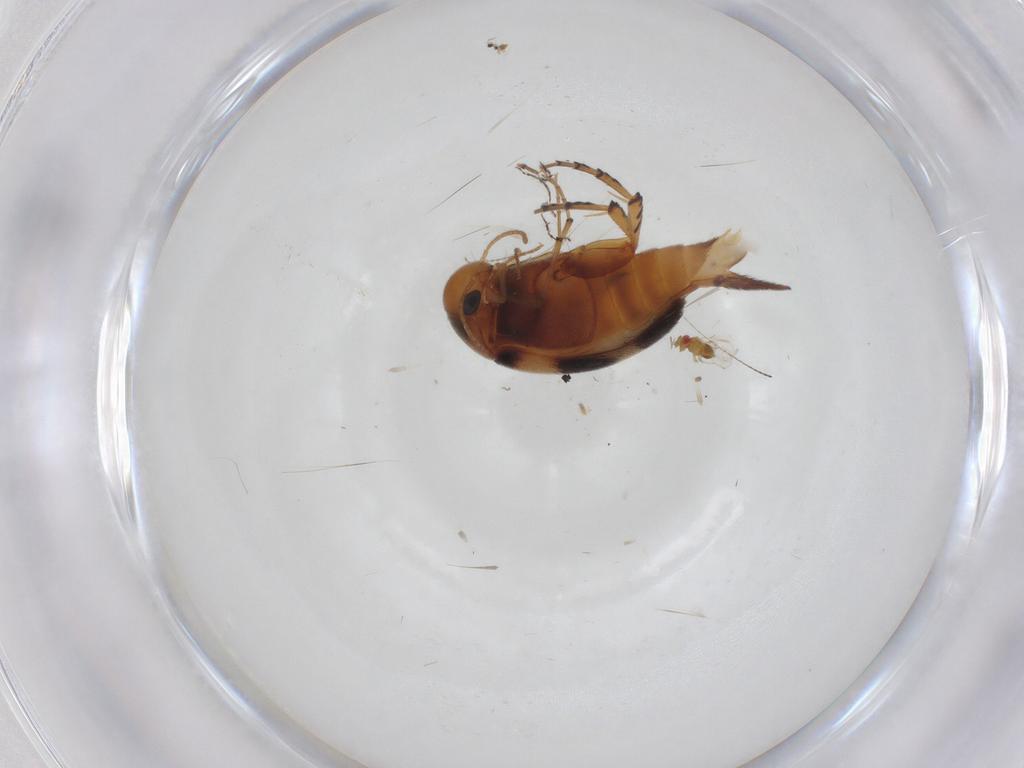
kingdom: Animalia
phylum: Arthropoda
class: Insecta
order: Coleoptera
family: Mordellidae
